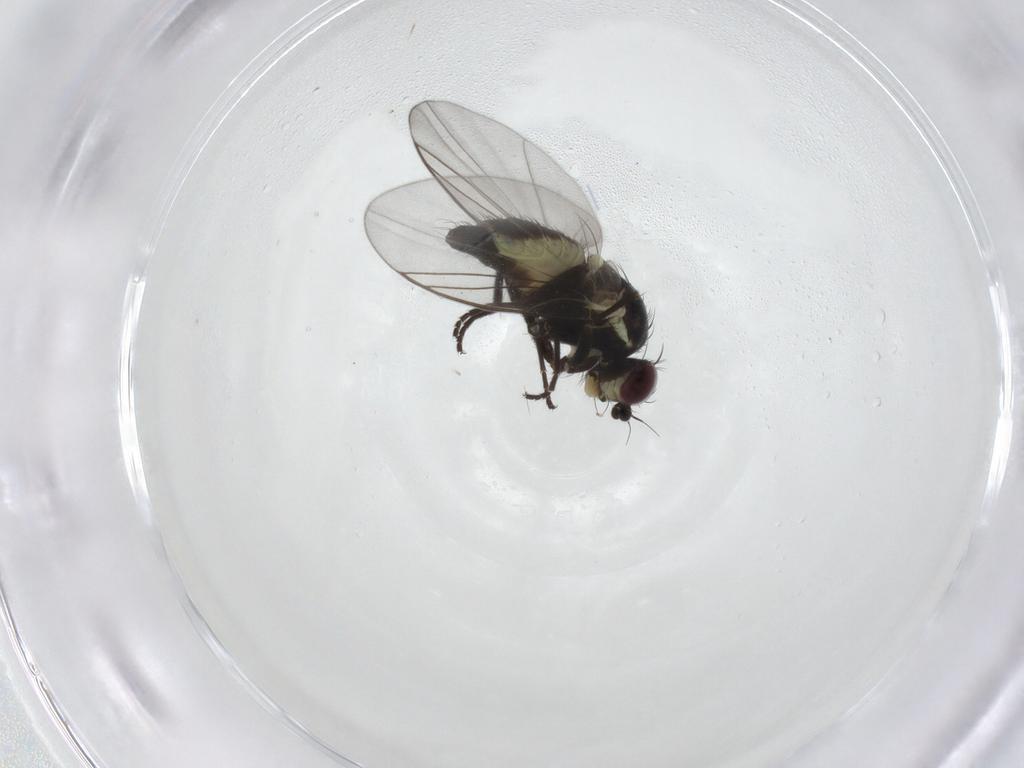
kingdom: Animalia
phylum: Arthropoda
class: Insecta
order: Diptera
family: Agromyzidae
